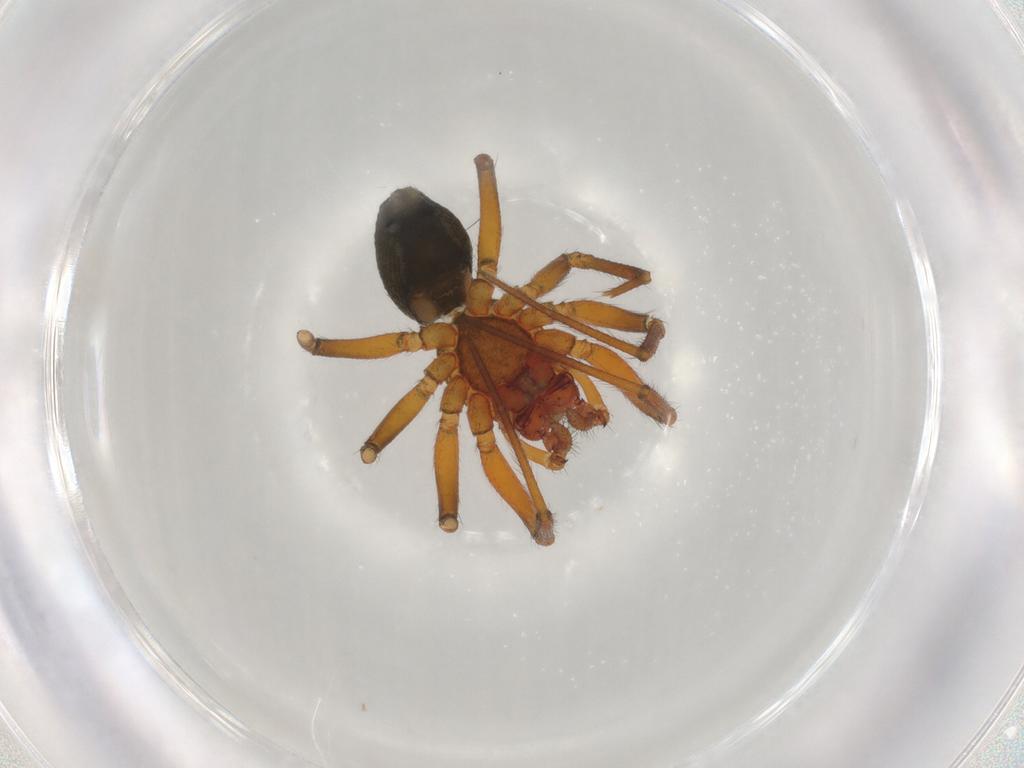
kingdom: Animalia
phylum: Arthropoda
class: Arachnida
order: Araneae
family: Linyphiidae
